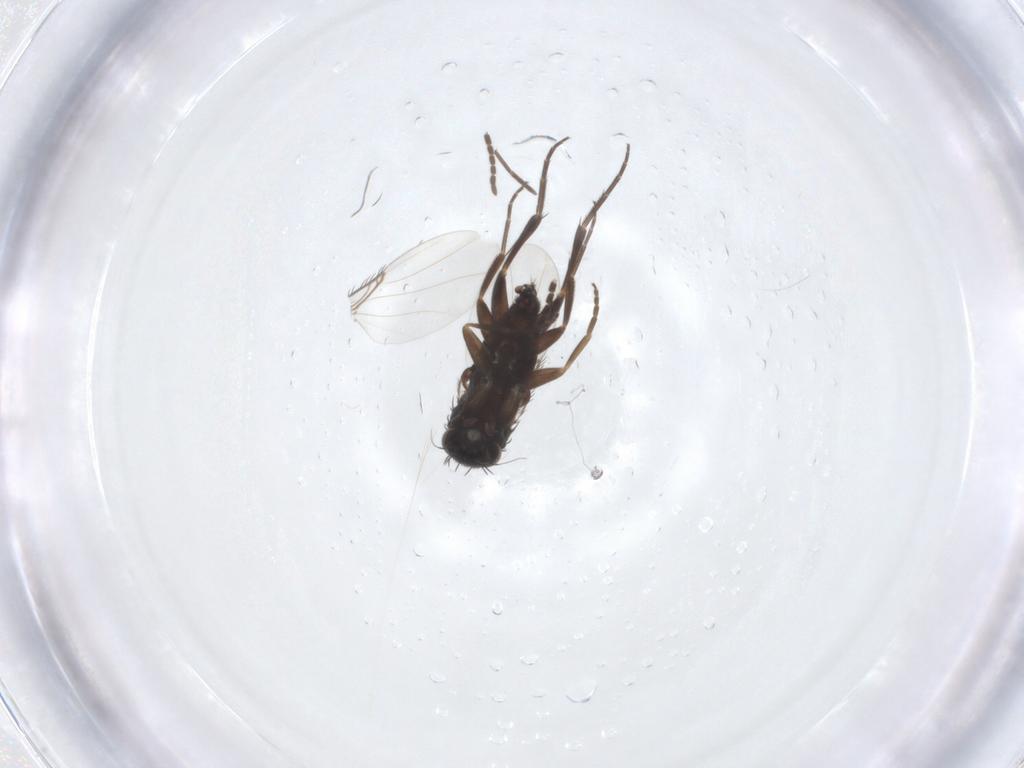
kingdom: Animalia
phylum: Arthropoda
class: Insecta
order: Diptera
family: Sciaridae
